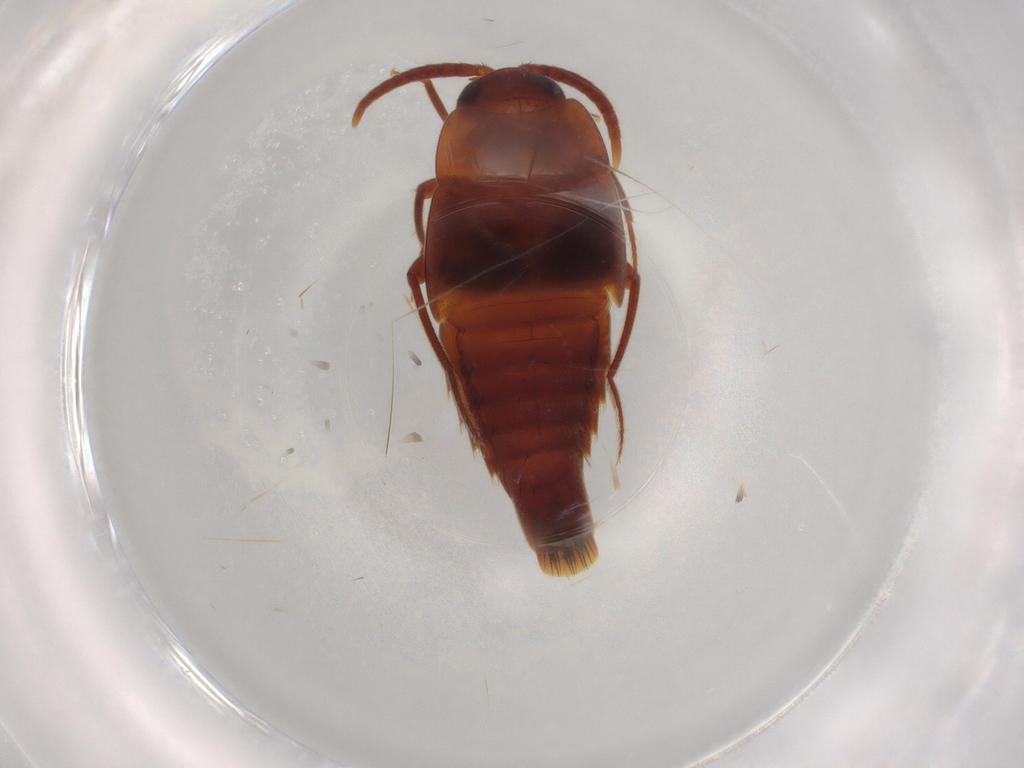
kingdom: Animalia
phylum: Arthropoda
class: Insecta
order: Coleoptera
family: Staphylinidae
